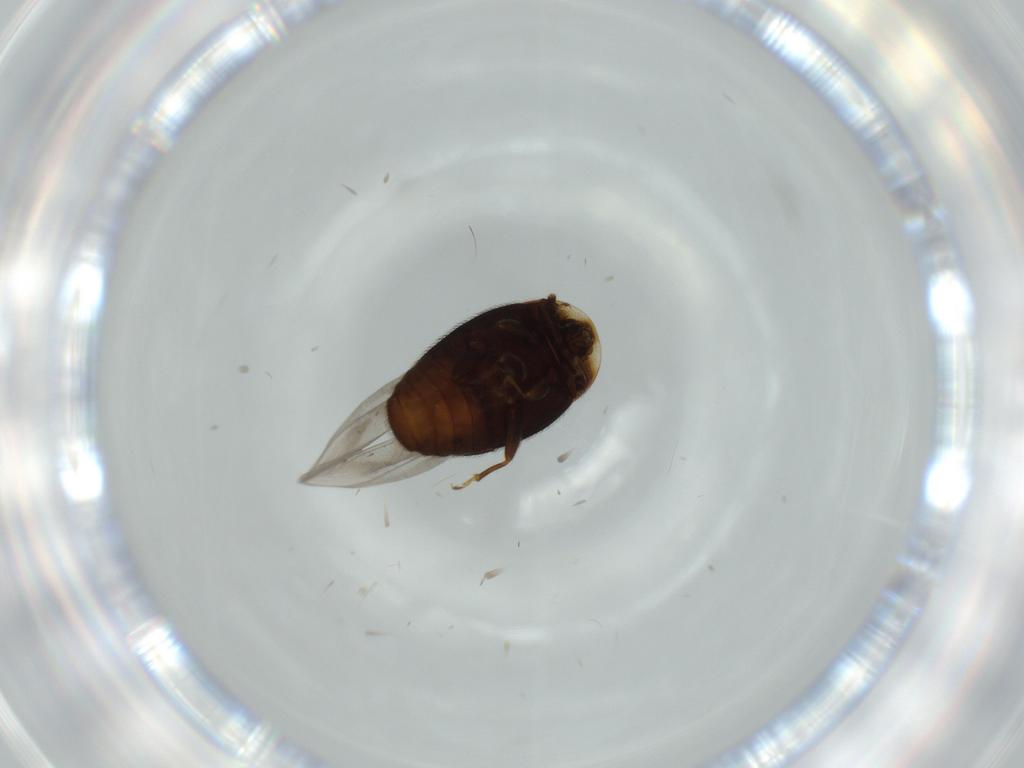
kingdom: Animalia
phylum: Arthropoda
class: Insecta
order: Coleoptera
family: Corylophidae
